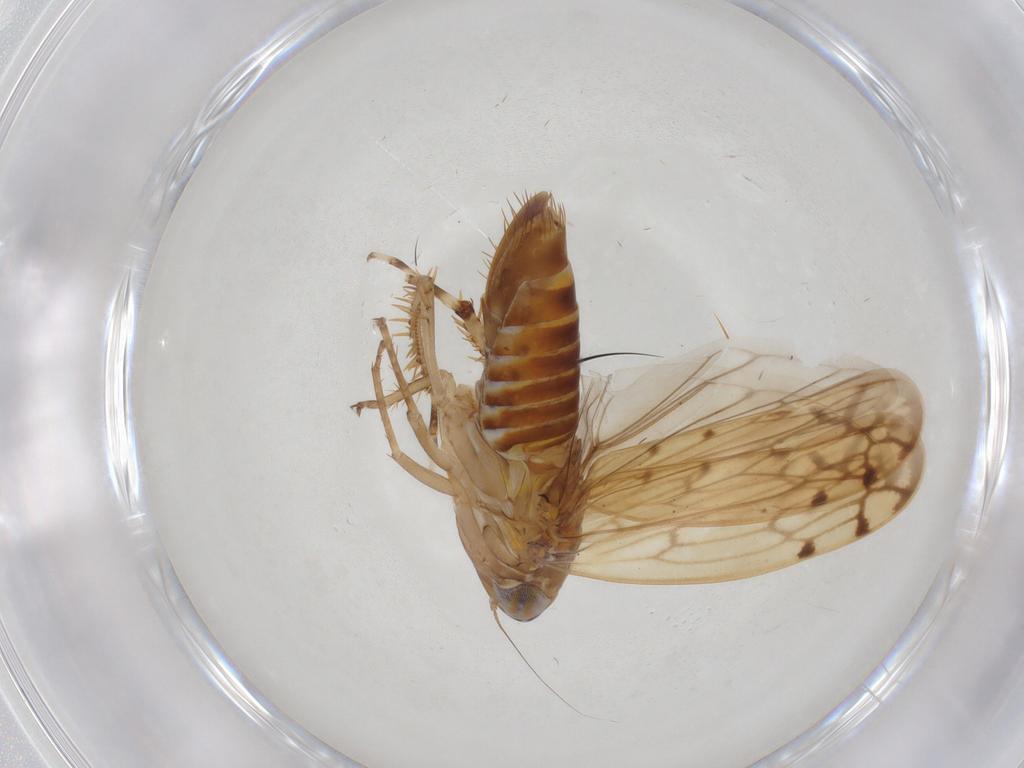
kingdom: Animalia
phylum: Arthropoda
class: Insecta
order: Hemiptera
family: Cicadellidae
